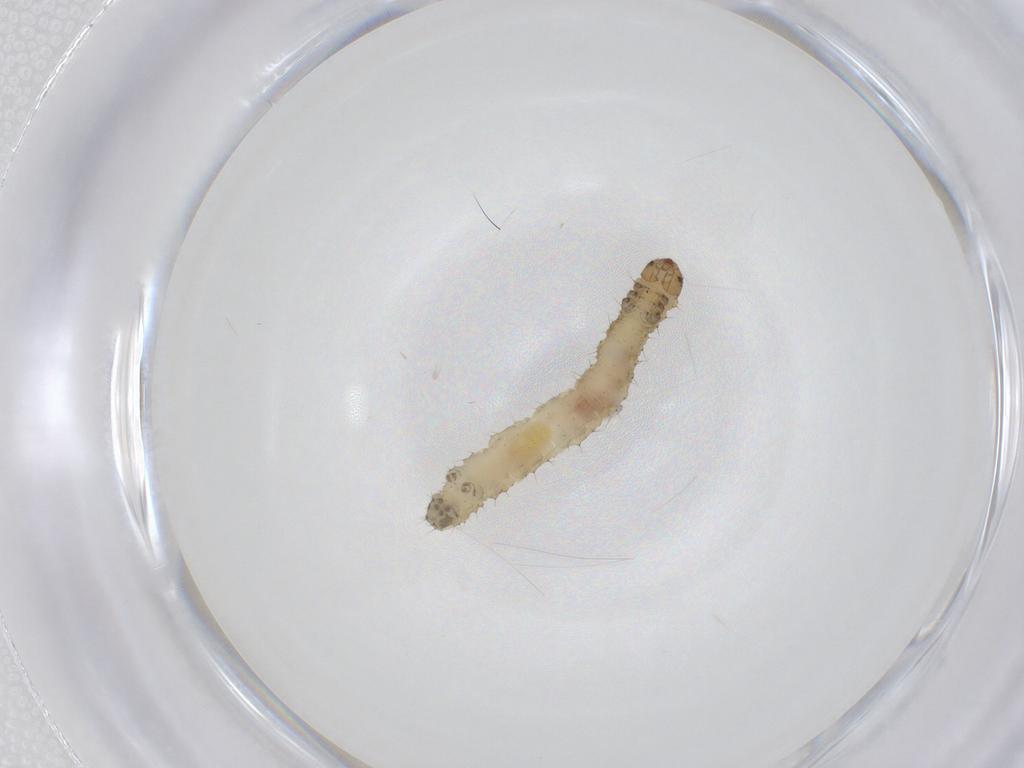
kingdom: Animalia
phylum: Arthropoda
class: Insecta
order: Lepidoptera
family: Geometridae
